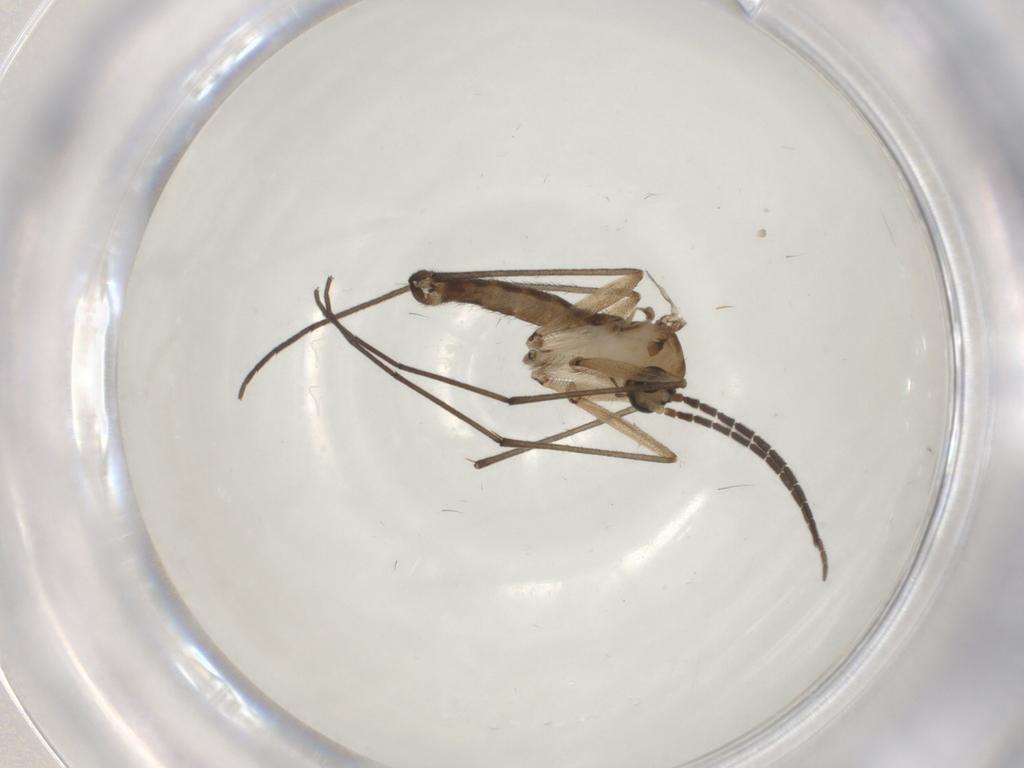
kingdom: Animalia
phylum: Arthropoda
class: Insecta
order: Diptera
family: Sciaridae
